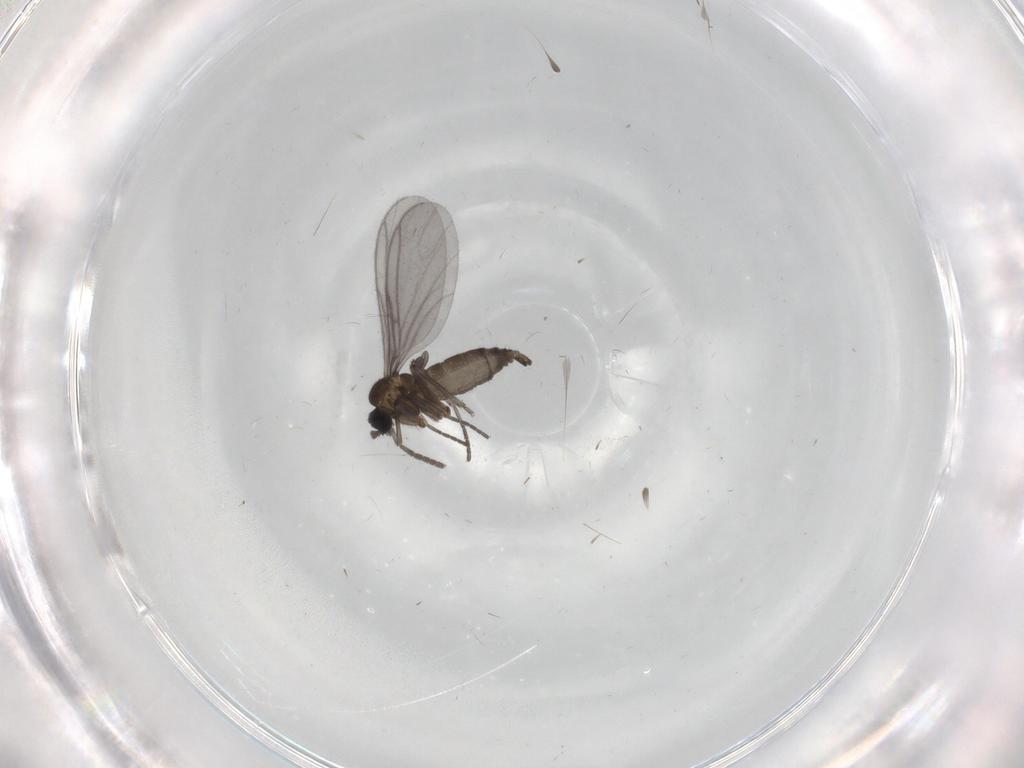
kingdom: Animalia
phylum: Arthropoda
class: Insecta
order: Diptera
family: Sciaridae
